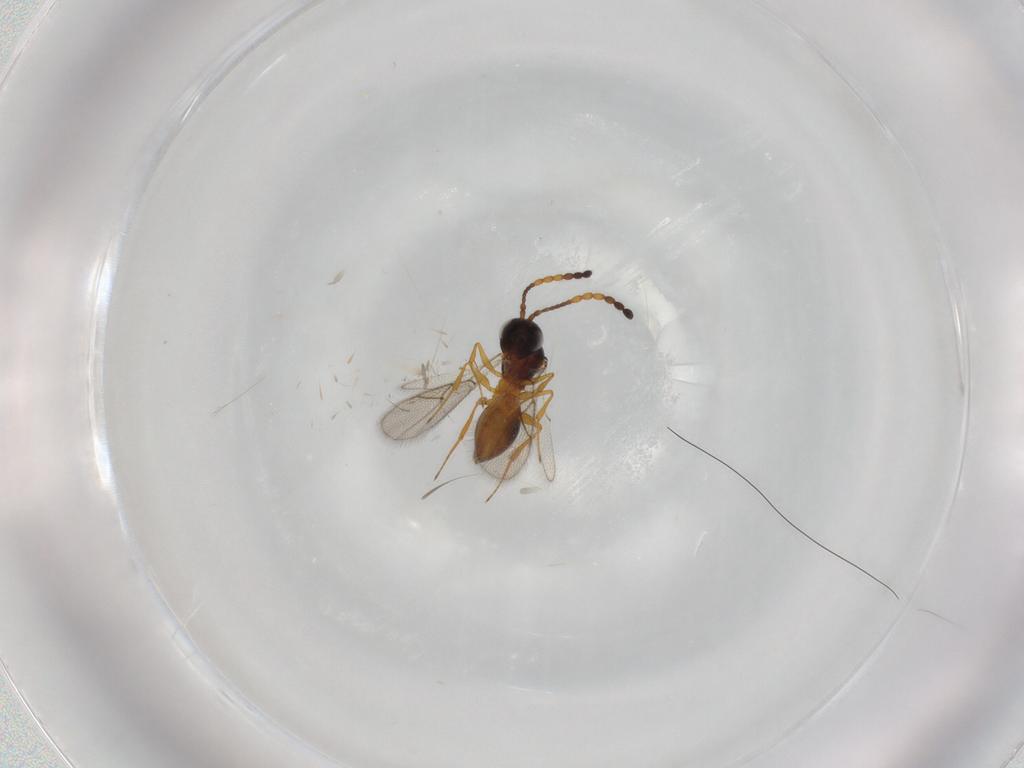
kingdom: Animalia
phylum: Arthropoda
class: Insecta
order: Hymenoptera
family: Figitidae
